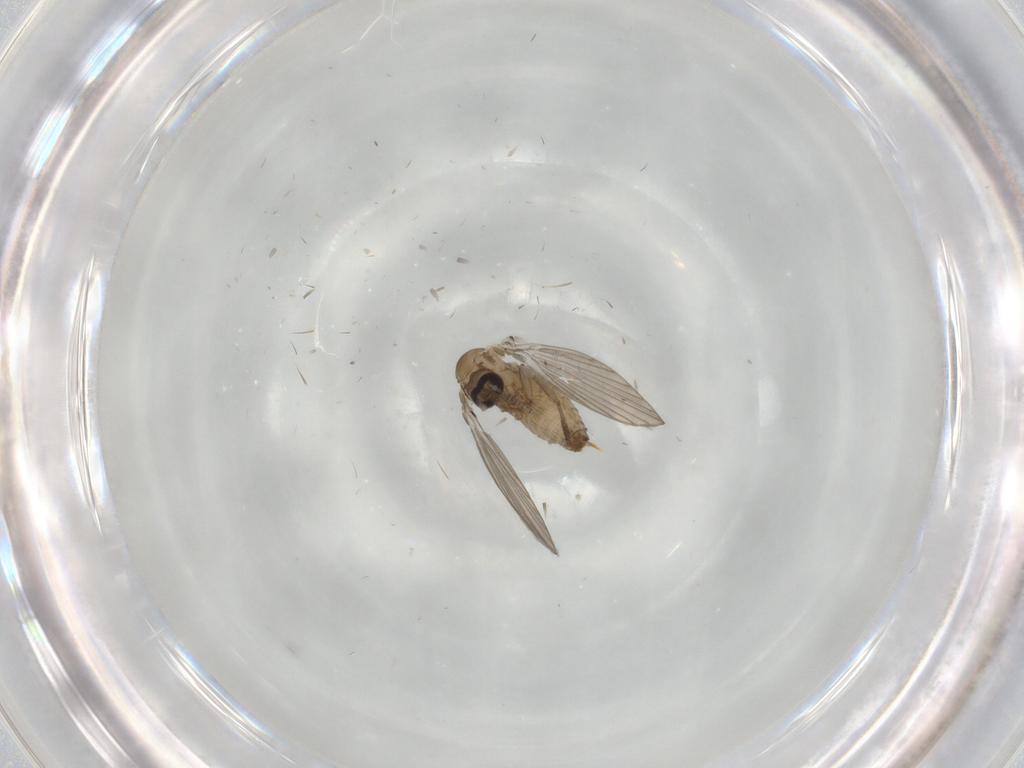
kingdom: Animalia
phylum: Arthropoda
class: Insecta
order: Diptera
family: Psychodidae
